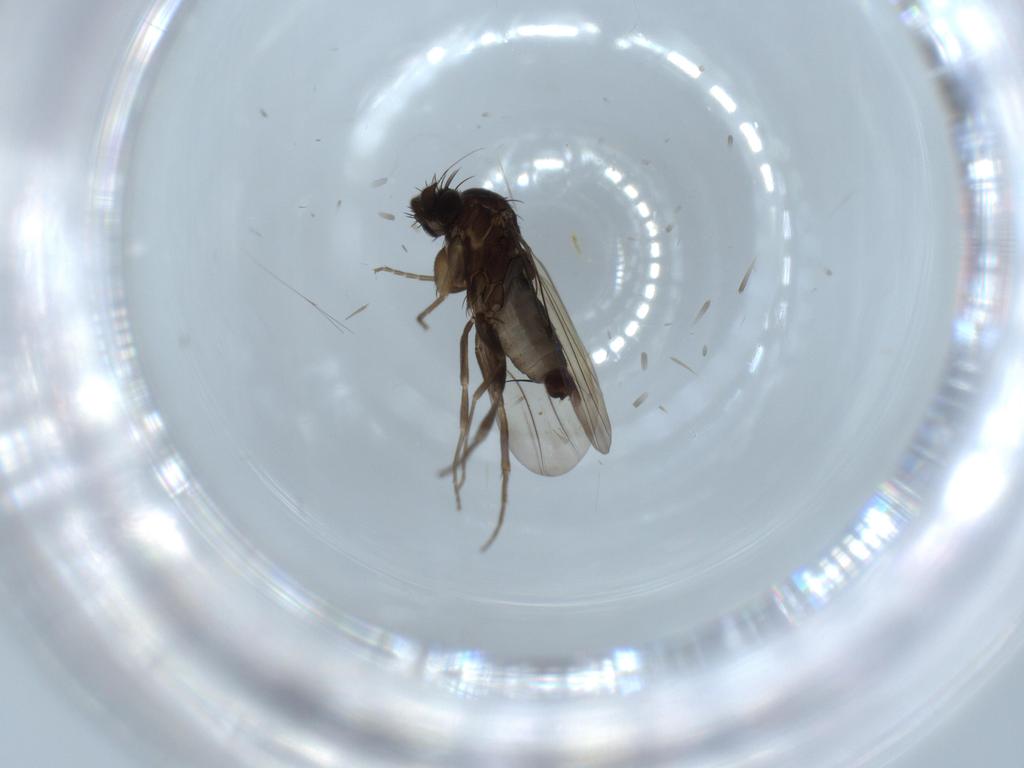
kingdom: Animalia
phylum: Arthropoda
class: Insecta
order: Diptera
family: Phoridae
